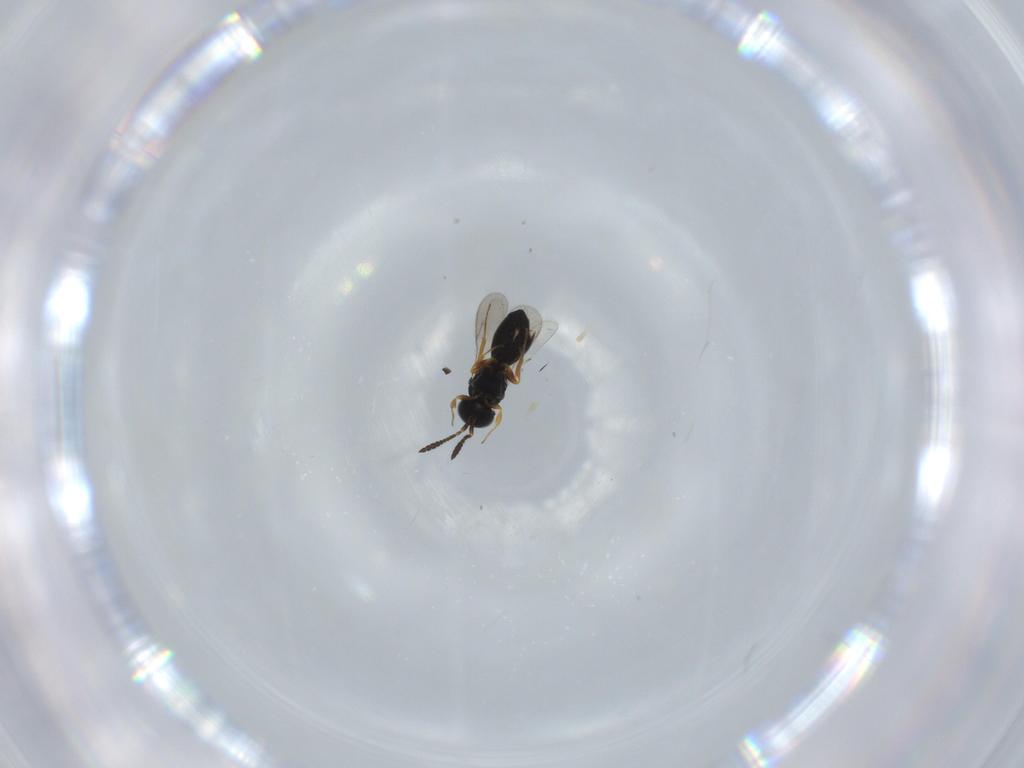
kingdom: Animalia
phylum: Arthropoda
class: Insecta
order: Hymenoptera
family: Scelionidae
